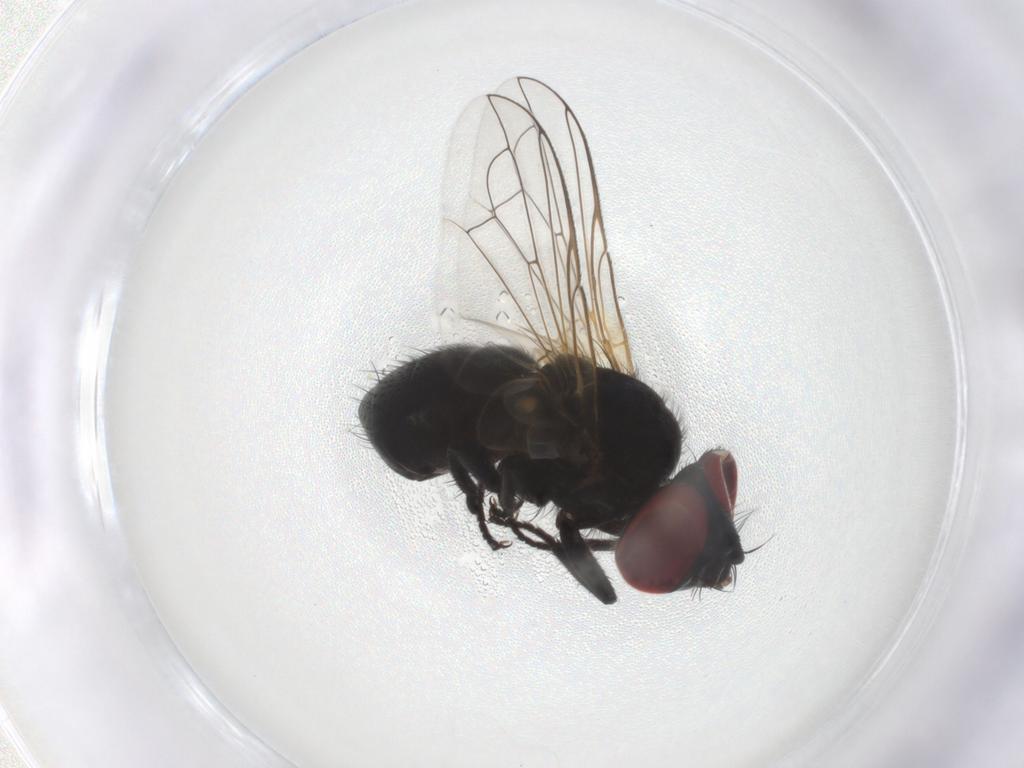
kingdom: Animalia
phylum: Arthropoda
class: Insecta
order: Diptera
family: Tachinidae
